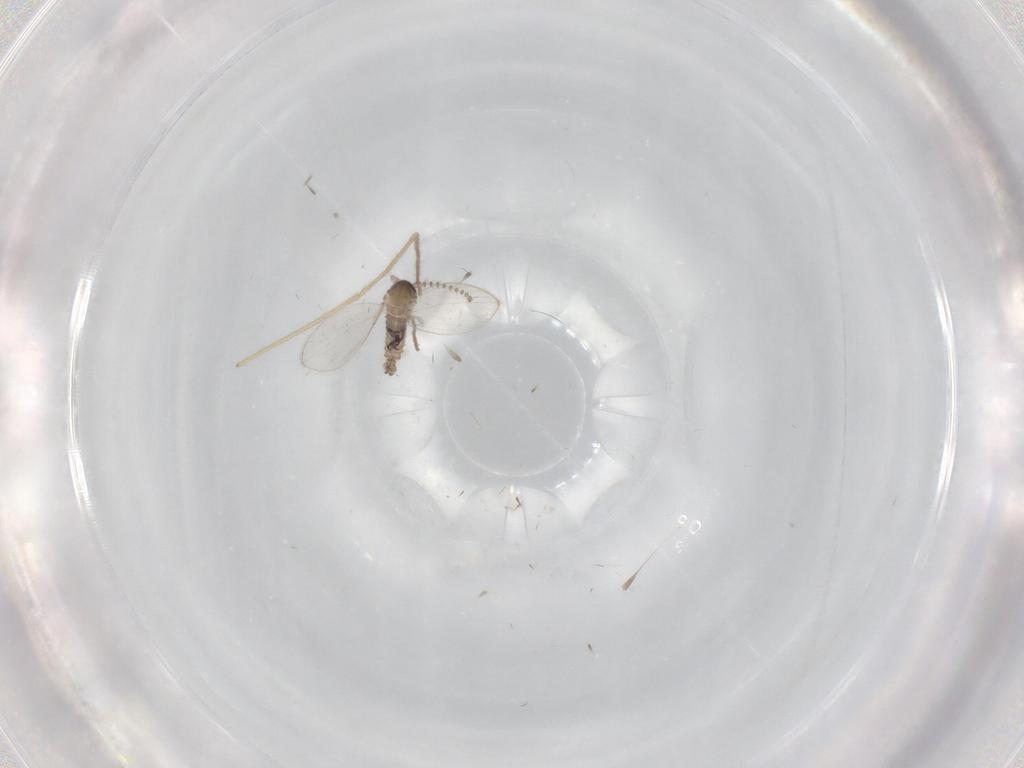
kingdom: Animalia
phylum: Arthropoda
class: Insecta
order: Diptera
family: Psychodidae
